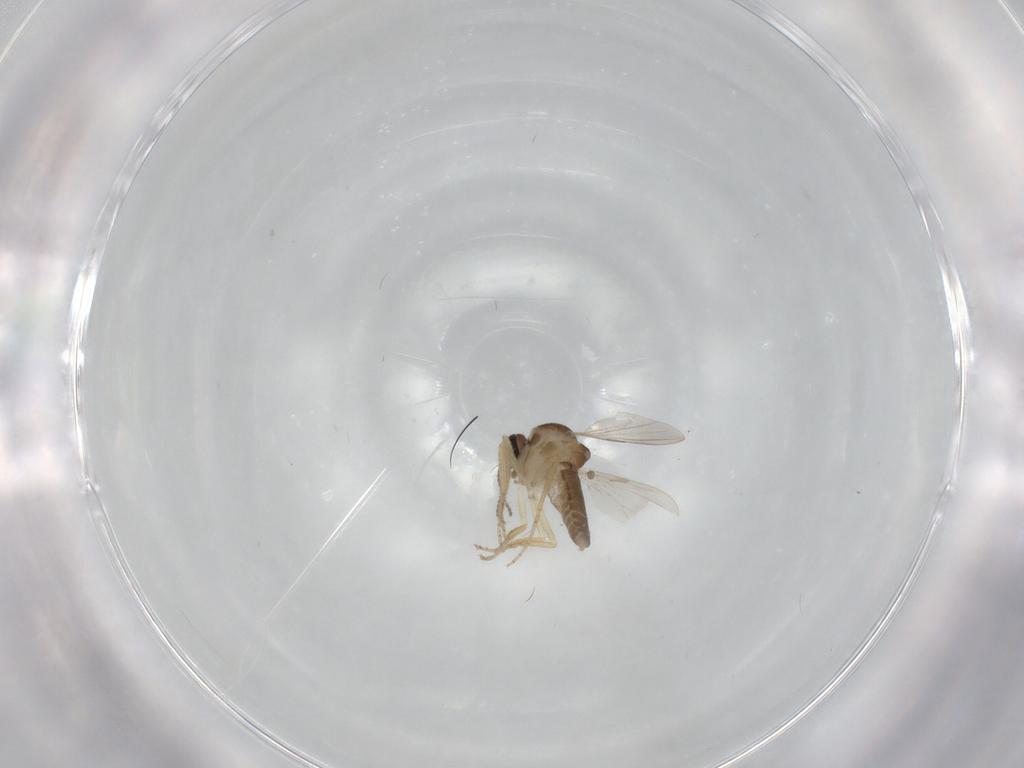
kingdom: Animalia
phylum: Arthropoda
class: Insecta
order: Diptera
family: Ceratopogonidae
